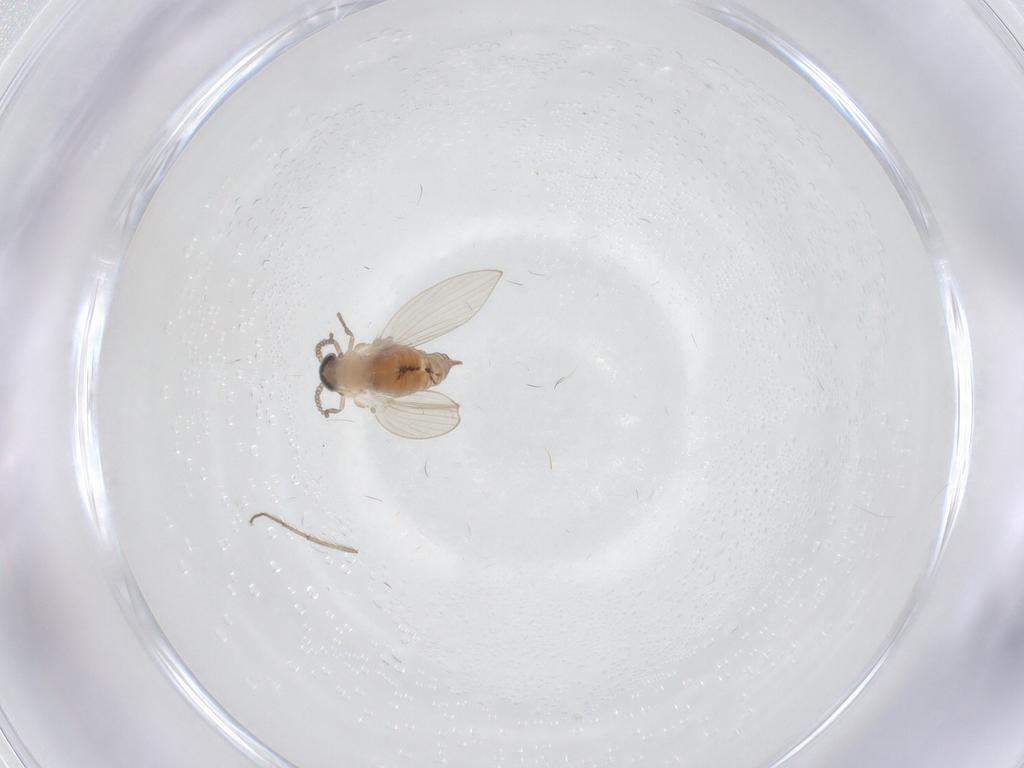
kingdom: Animalia
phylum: Arthropoda
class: Insecta
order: Diptera
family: Psychodidae
